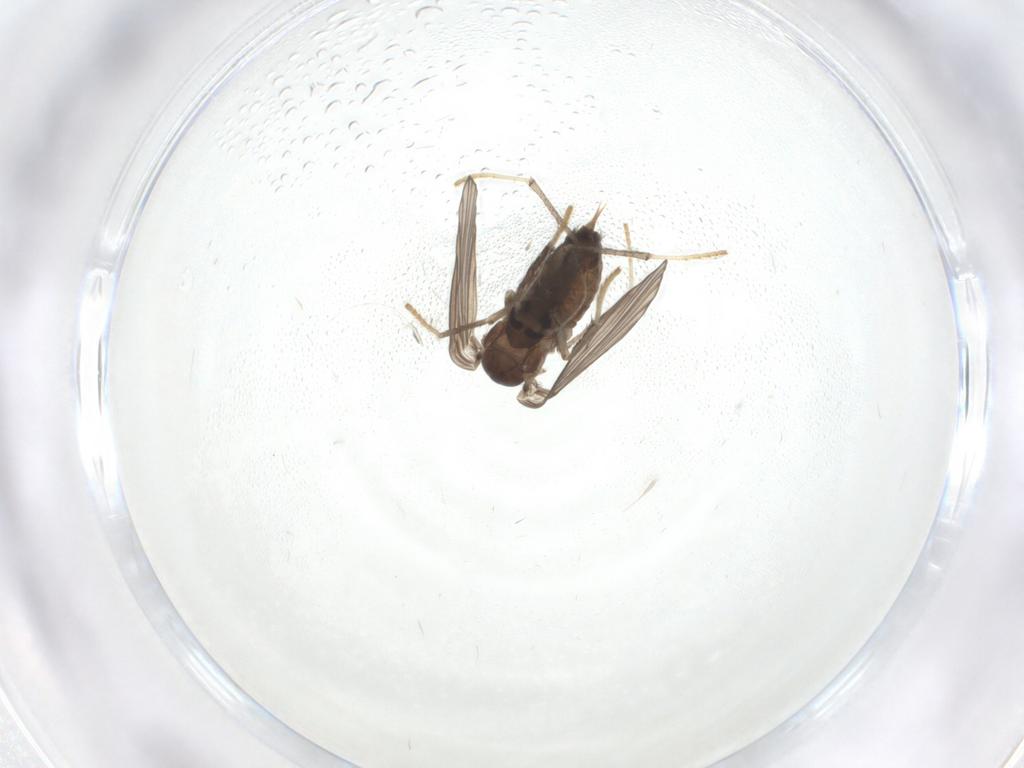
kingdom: Animalia
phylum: Arthropoda
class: Insecta
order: Diptera
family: Psychodidae
